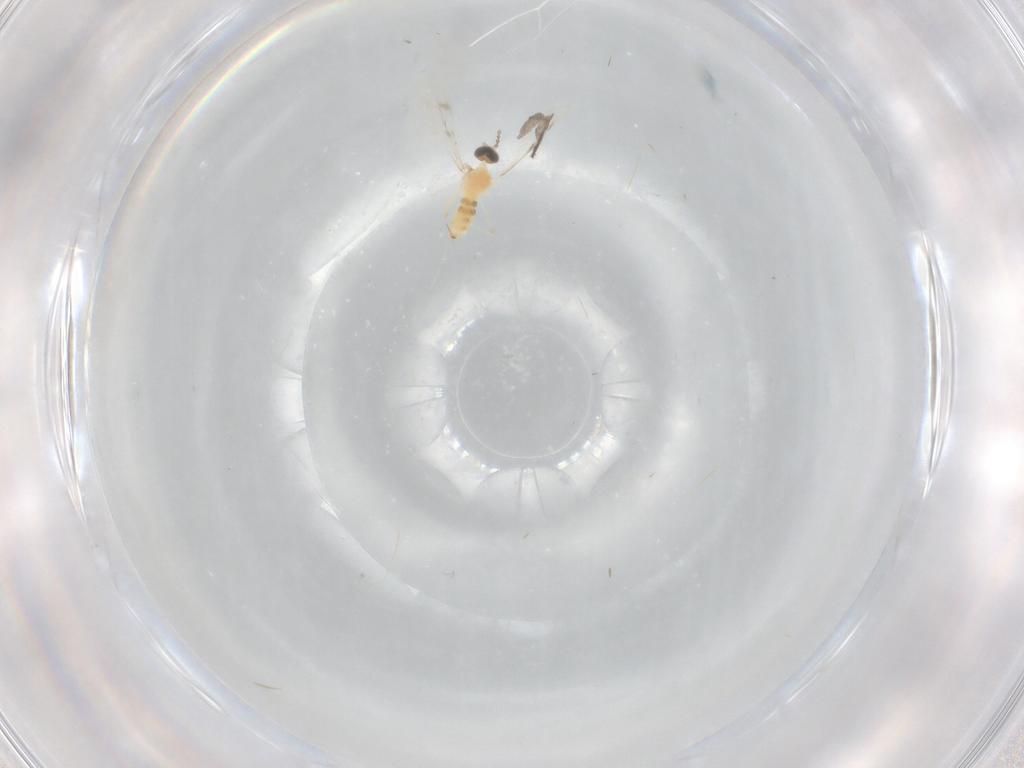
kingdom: Animalia
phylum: Arthropoda
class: Insecta
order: Diptera
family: Cecidomyiidae
